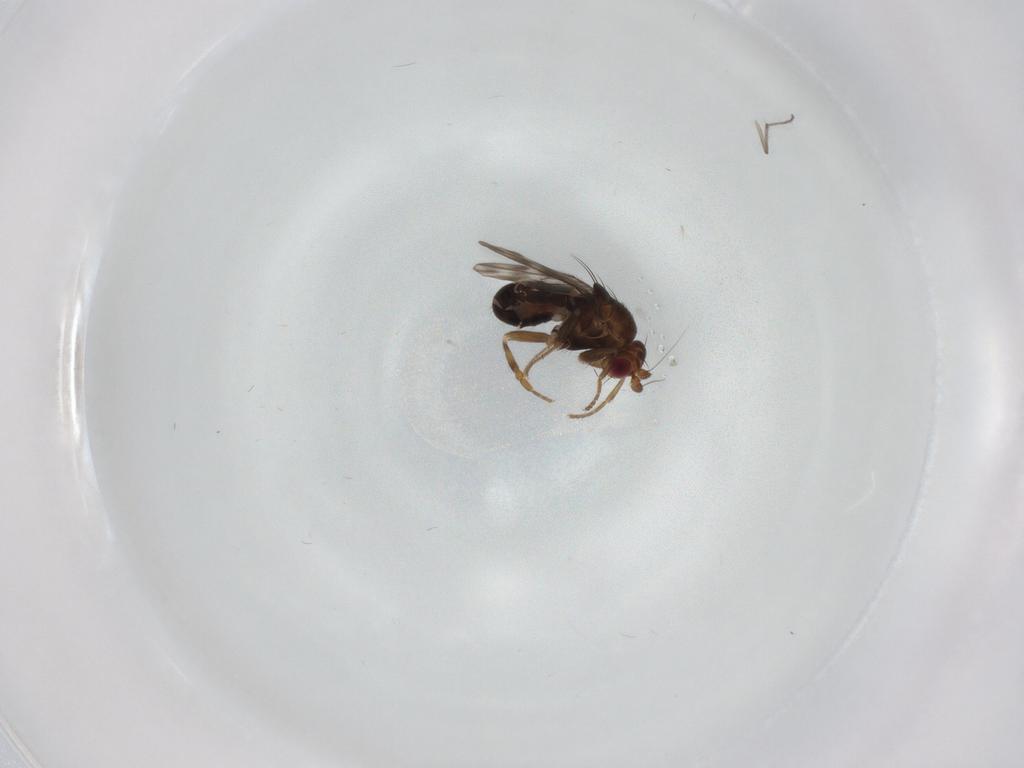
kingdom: Animalia
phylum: Arthropoda
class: Insecta
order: Diptera
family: Sphaeroceridae
